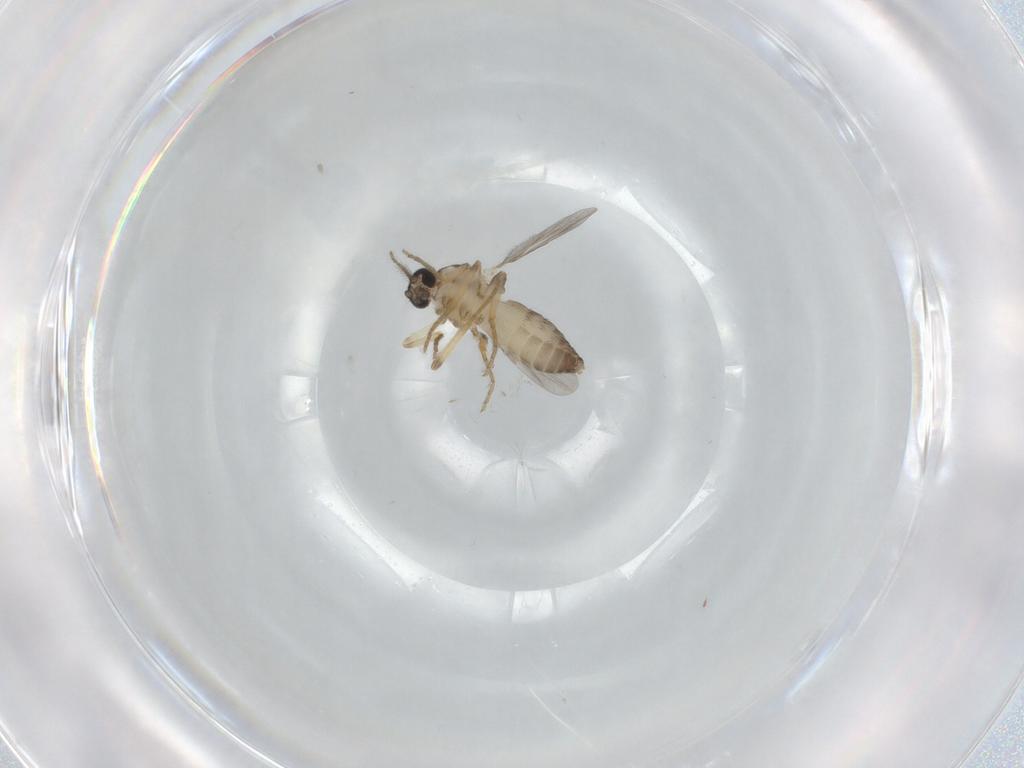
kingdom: Animalia
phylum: Arthropoda
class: Insecta
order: Diptera
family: Ceratopogonidae
